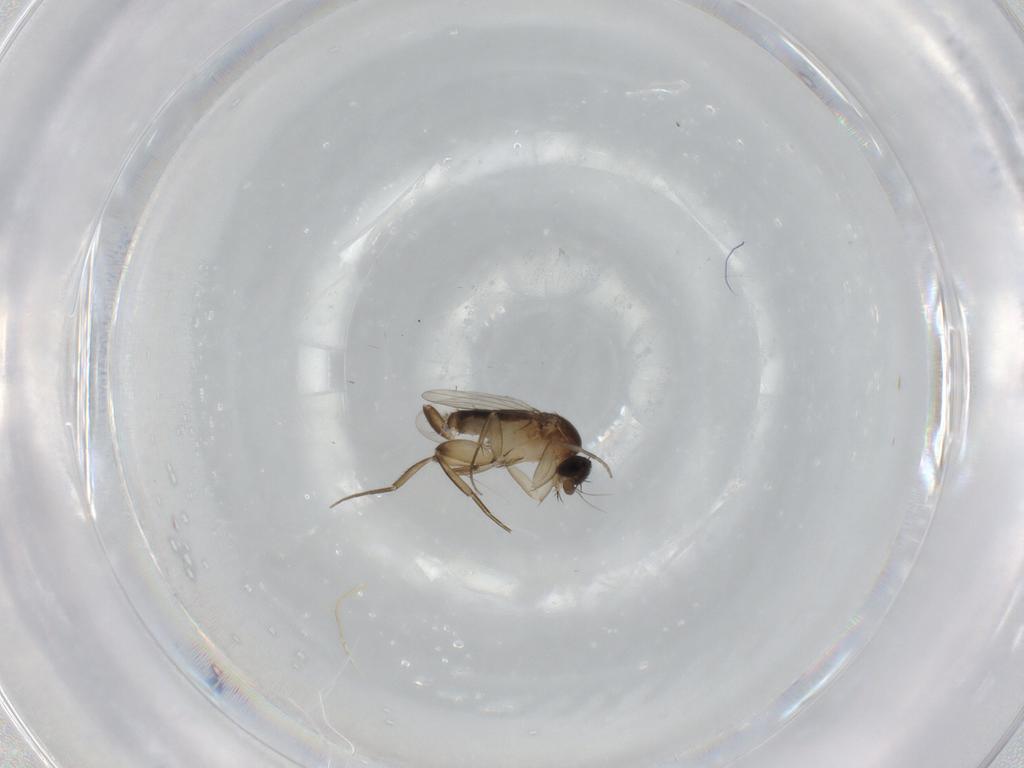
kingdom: Animalia
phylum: Arthropoda
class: Insecta
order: Diptera
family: Phoridae
